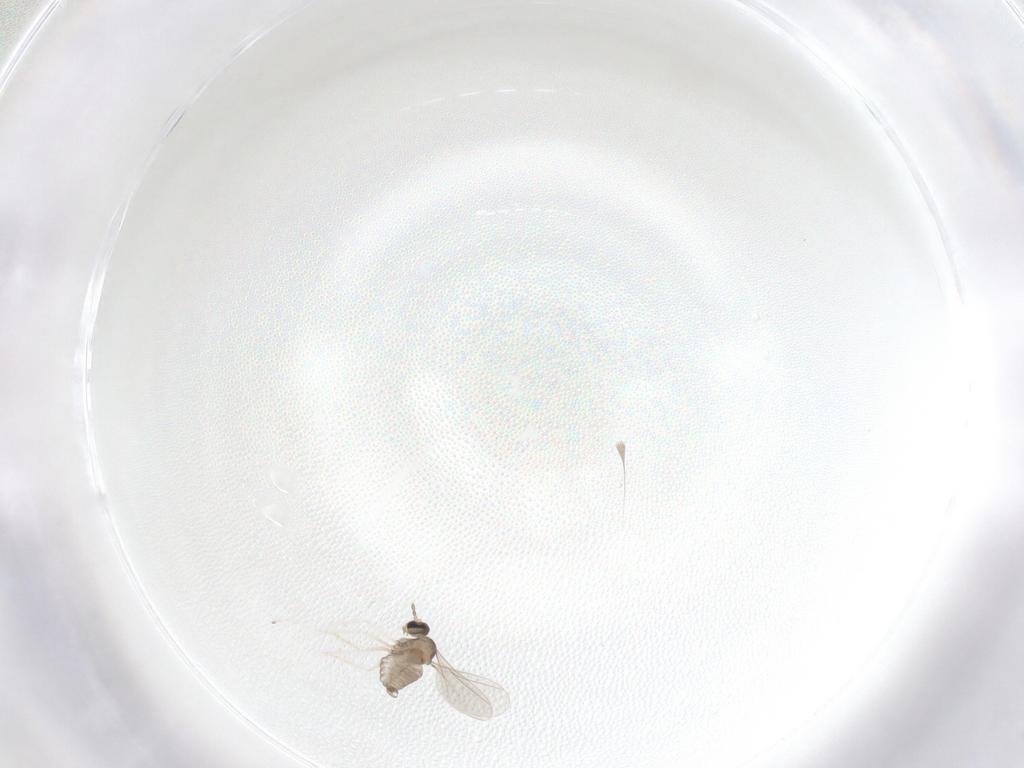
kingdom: Animalia
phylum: Arthropoda
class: Insecta
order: Diptera
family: Cecidomyiidae
